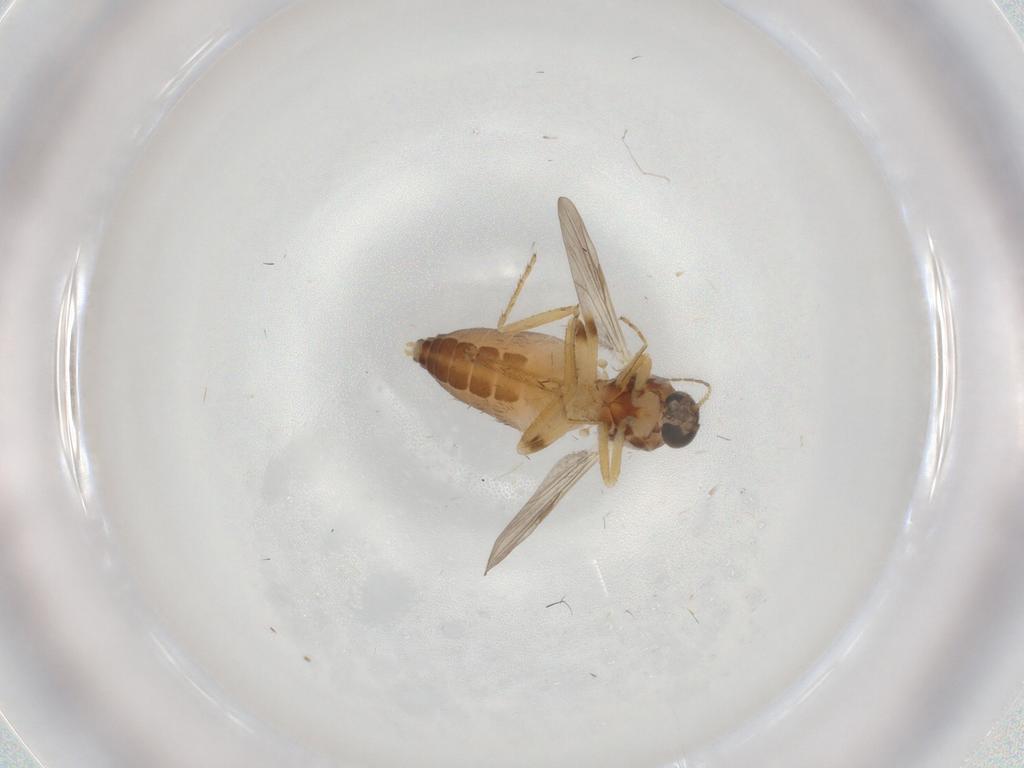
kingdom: Animalia
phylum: Arthropoda
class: Insecta
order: Diptera
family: Ceratopogonidae
